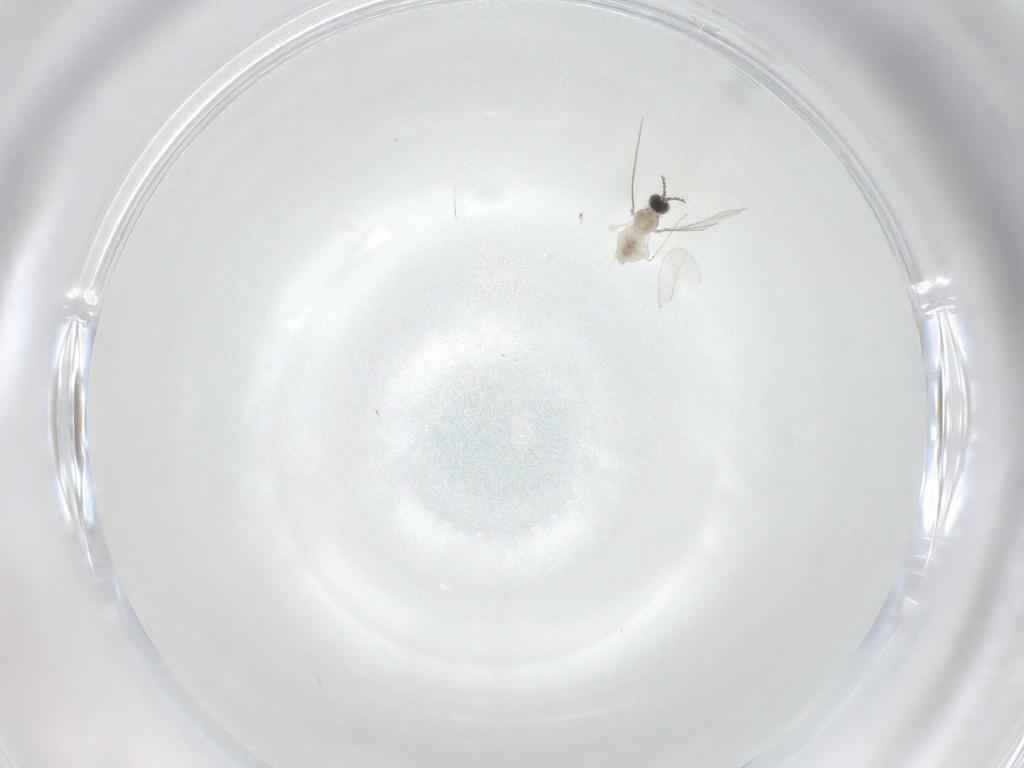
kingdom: Animalia
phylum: Arthropoda
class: Insecta
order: Diptera
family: Cecidomyiidae
